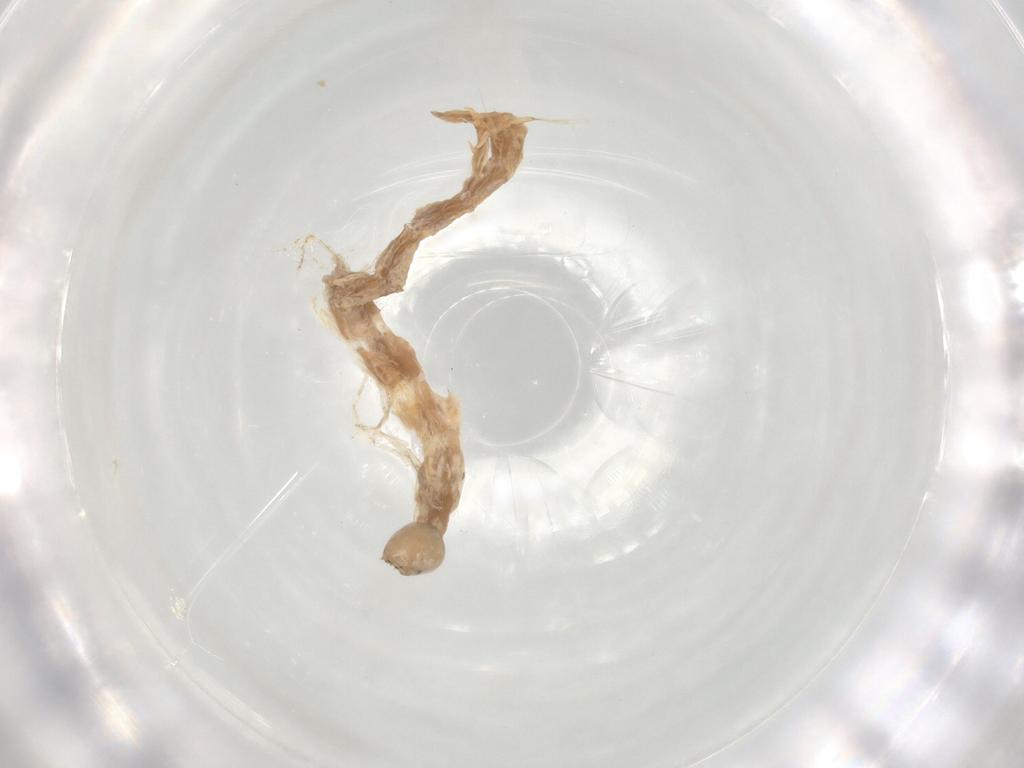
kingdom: Animalia
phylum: Arthropoda
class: Insecta
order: Diptera
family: Chironomidae
